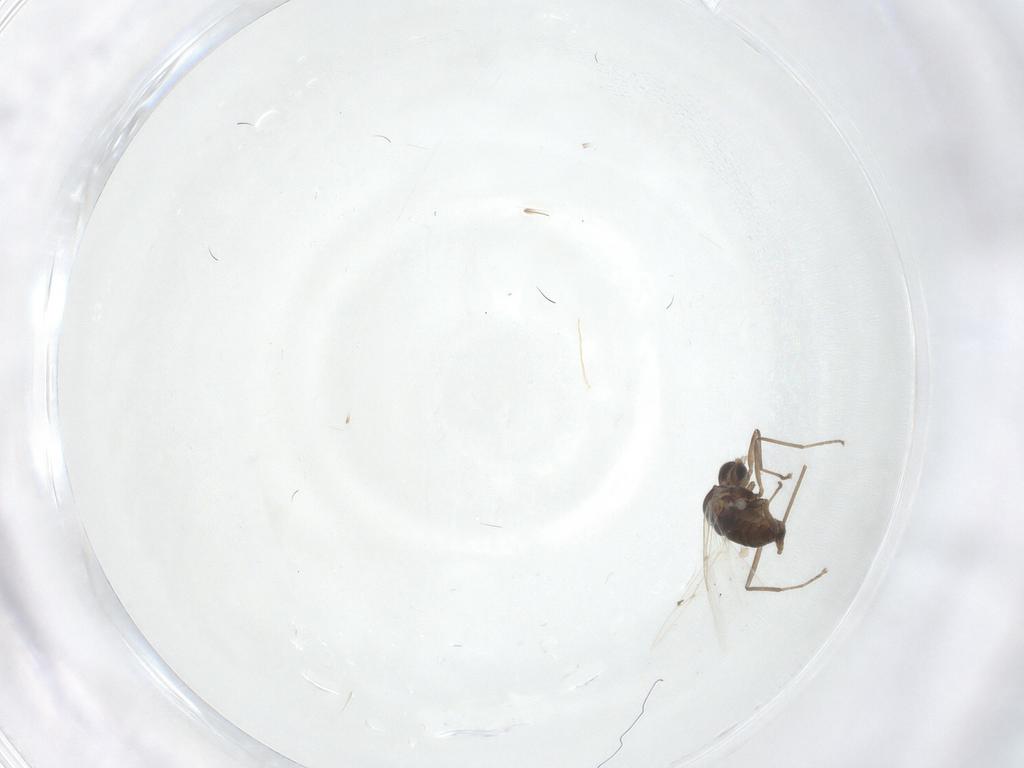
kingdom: Animalia
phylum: Arthropoda
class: Insecta
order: Diptera
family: Cecidomyiidae
